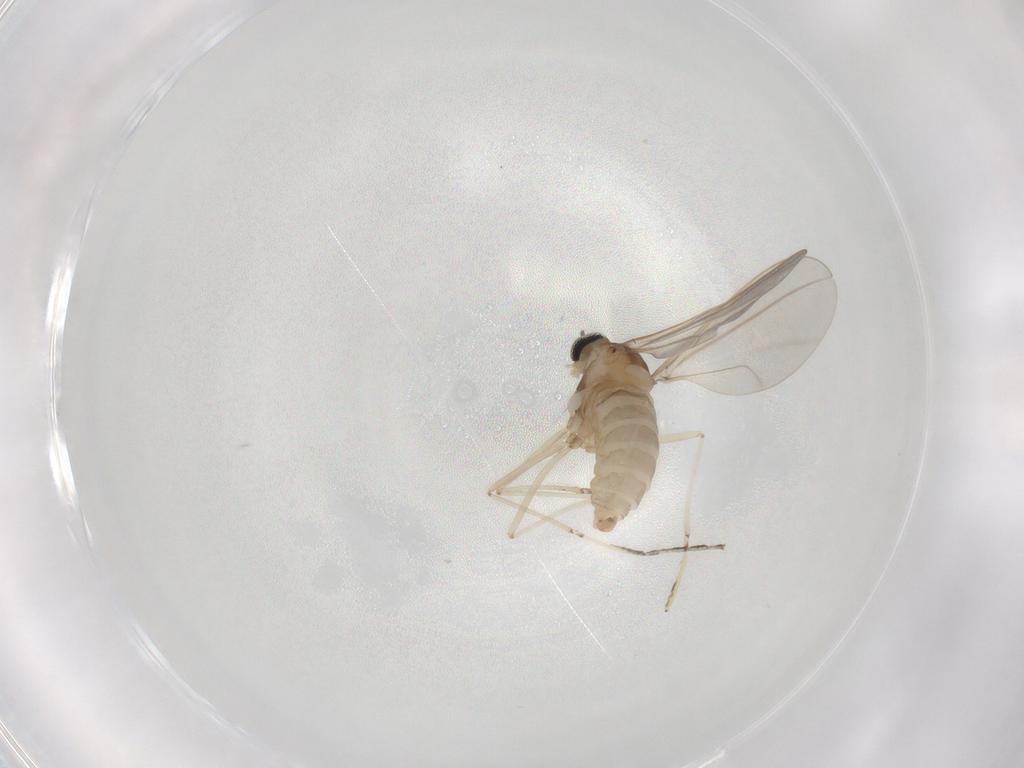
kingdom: Animalia
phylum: Arthropoda
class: Insecta
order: Diptera
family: Cecidomyiidae
